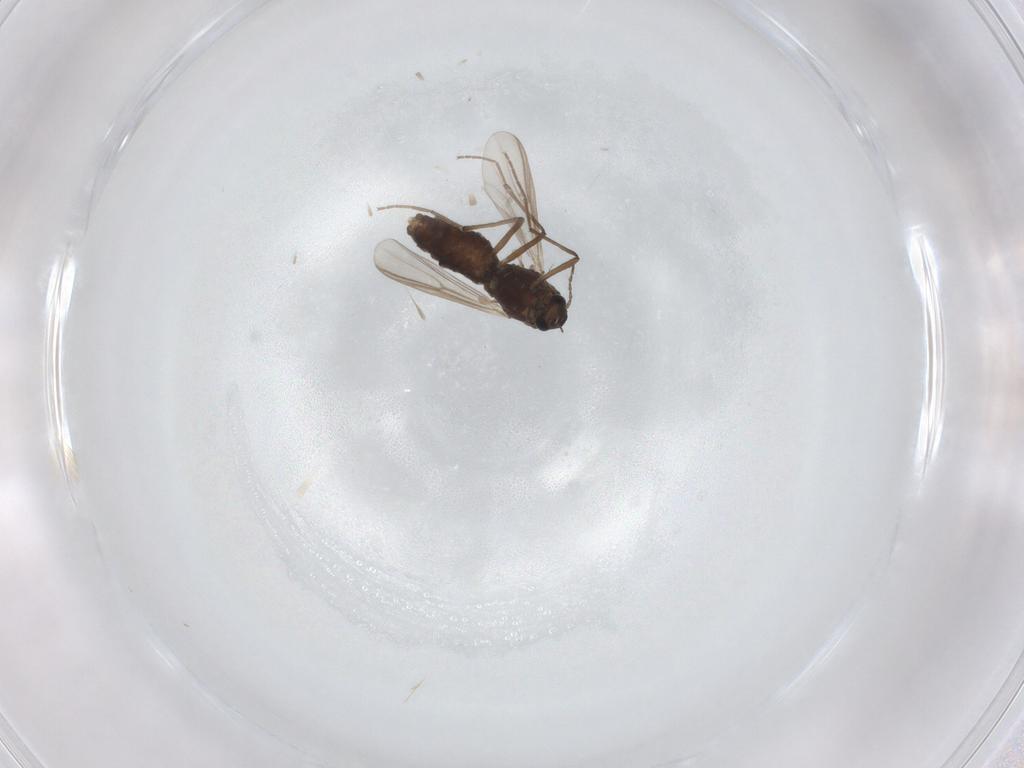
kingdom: Animalia
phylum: Arthropoda
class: Insecta
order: Diptera
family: Chironomidae
